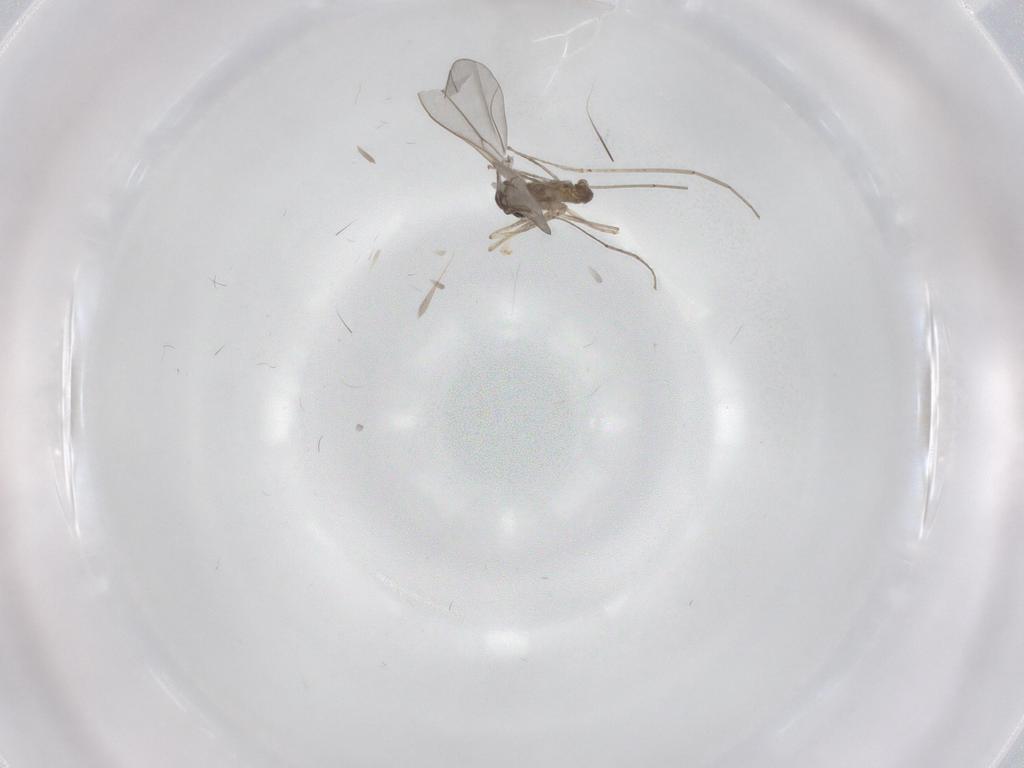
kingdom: Animalia
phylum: Arthropoda
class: Insecta
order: Diptera
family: Cecidomyiidae
